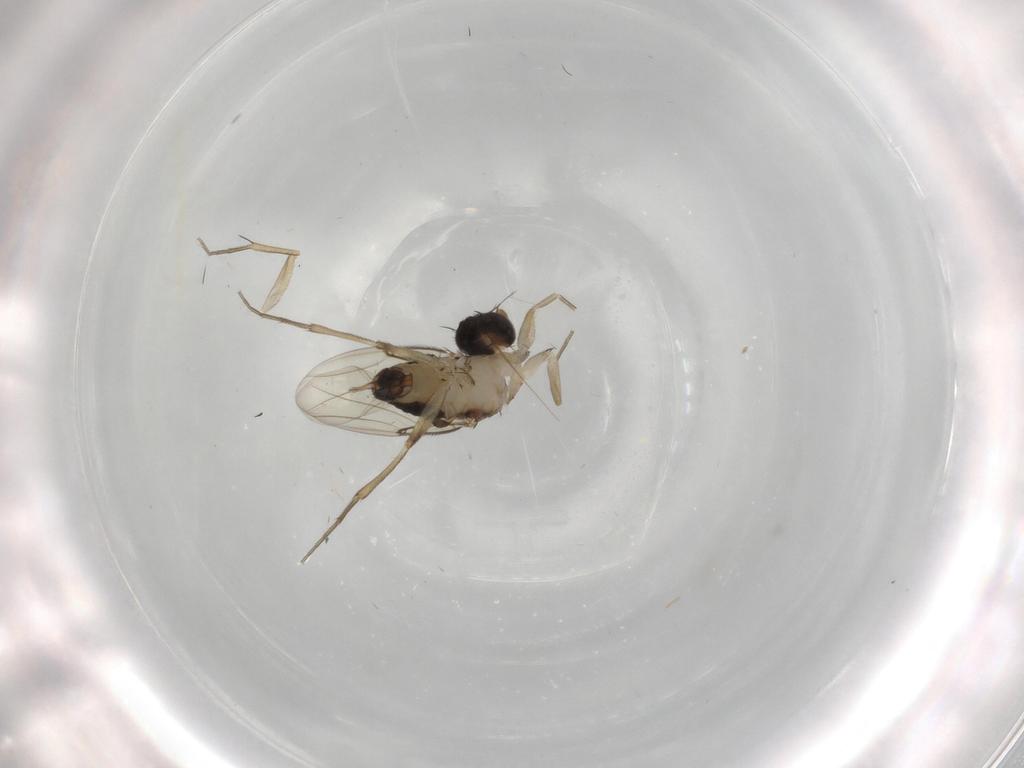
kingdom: Animalia
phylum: Arthropoda
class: Insecta
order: Diptera
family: Phoridae
